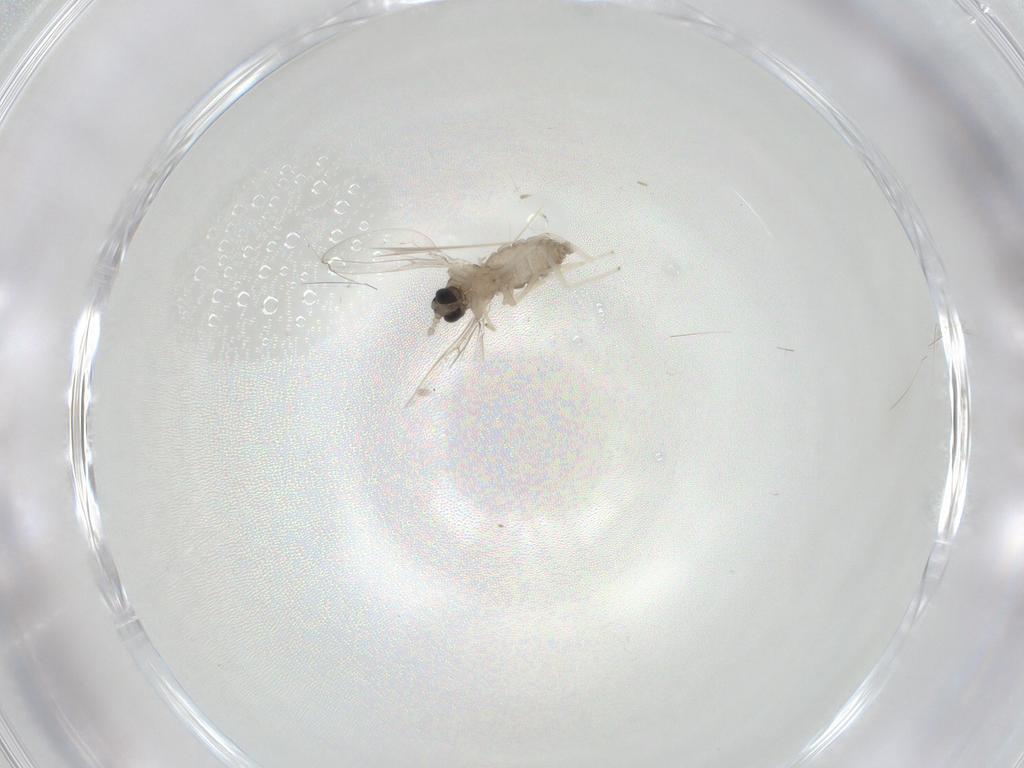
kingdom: Animalia
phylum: Arthropoda
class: Insecta
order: Diptera
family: Cecidomyiidae
